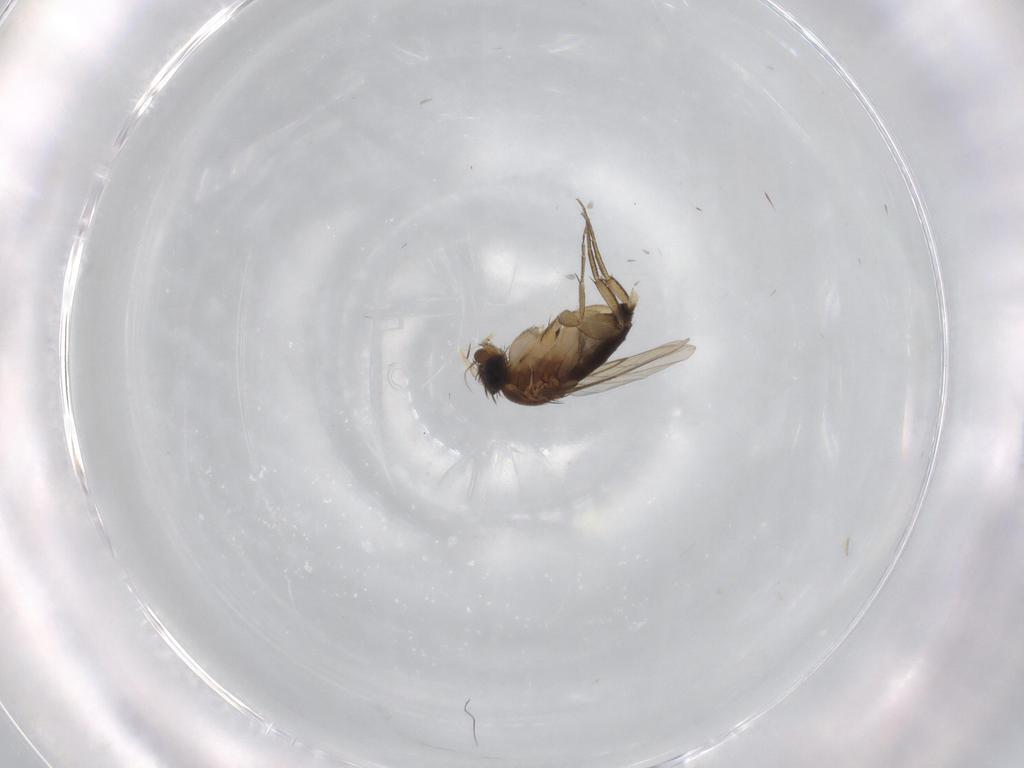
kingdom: Animalia
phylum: Arthropoda
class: Insecta
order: Diptera
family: Phoridae
